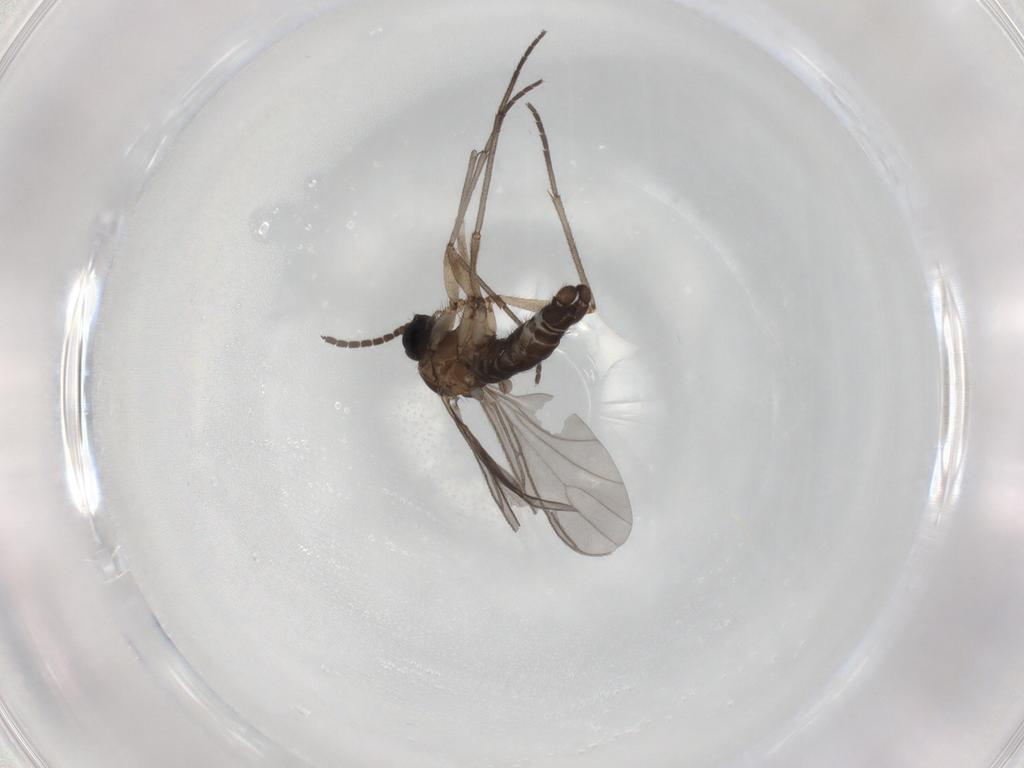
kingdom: Animalia
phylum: Arthropoda
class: Insecta
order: Diptera
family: Sciaridae
